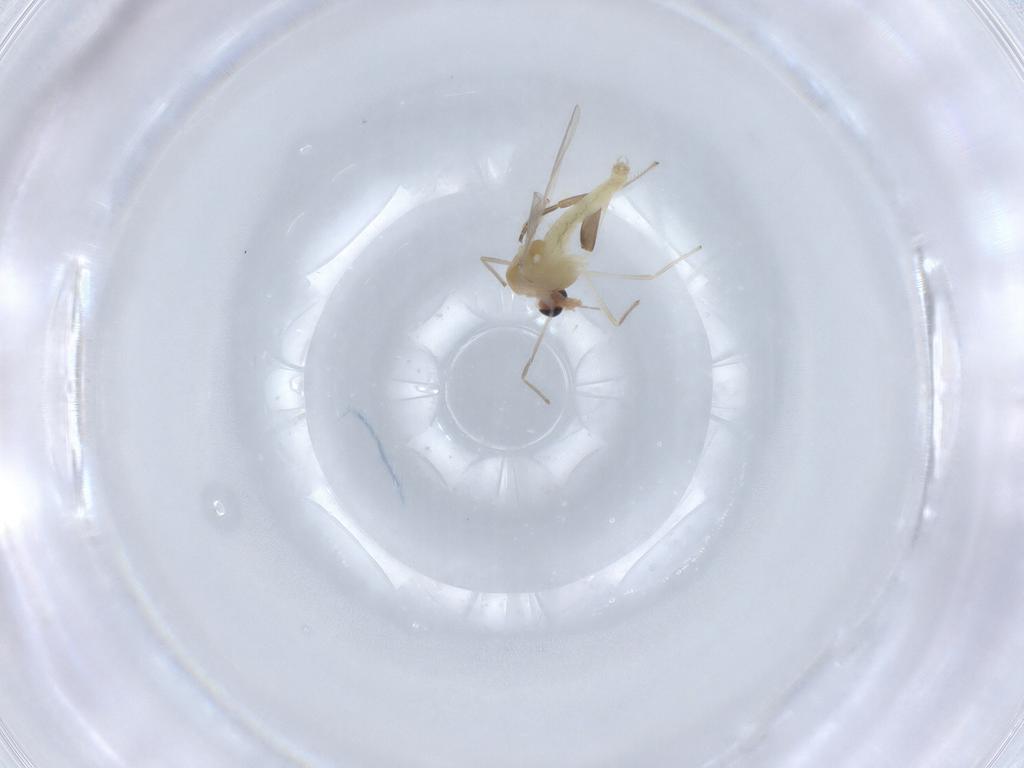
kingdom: Animalia
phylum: Arthropoda
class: Insecta
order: Diptera
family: Chironomidae
